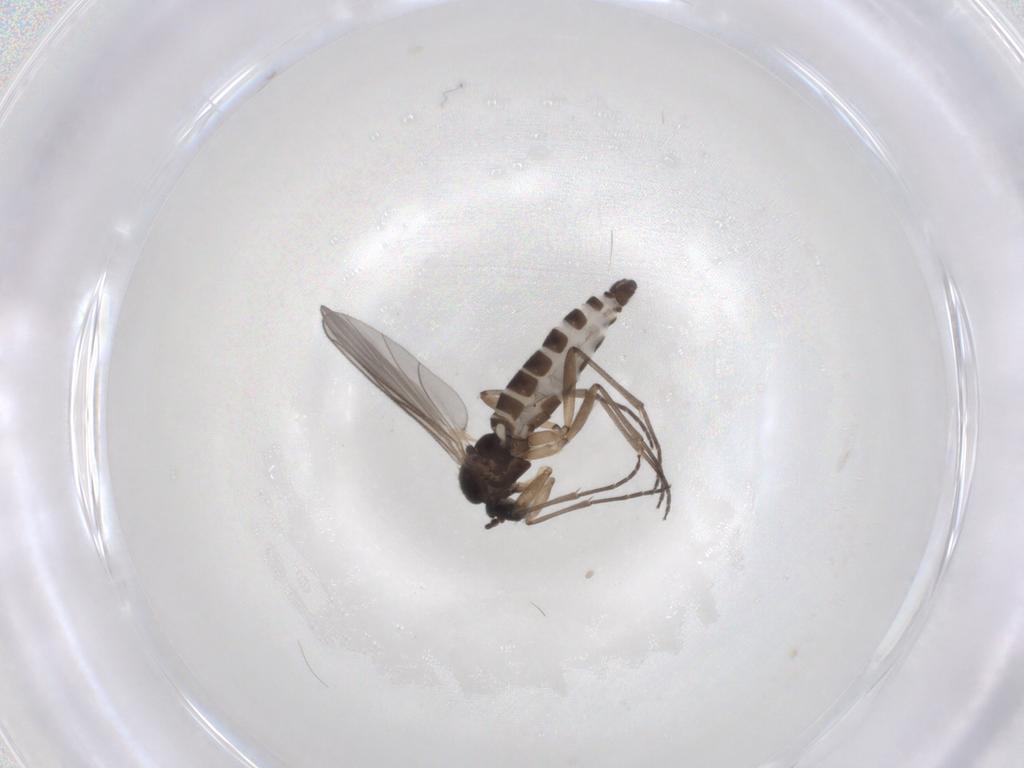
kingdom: Animalia
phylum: Arthropoda
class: Insecta
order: Diptera
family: Sciaridae
